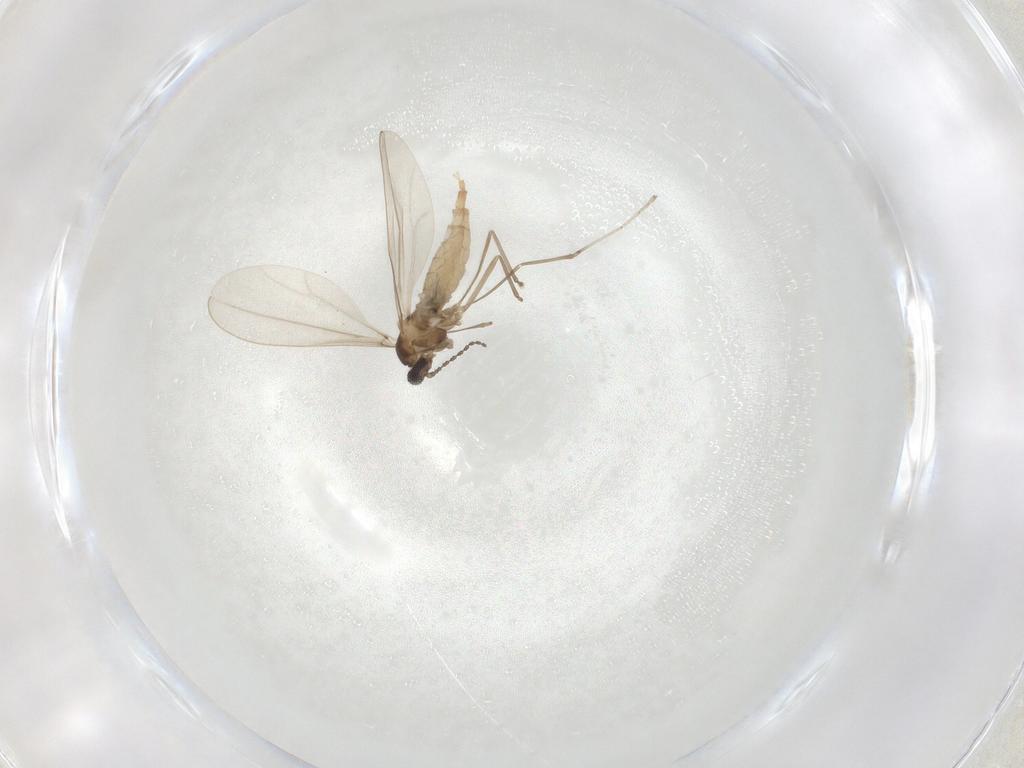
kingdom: Animalia
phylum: Arthropoda
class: Insecta
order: Diptera
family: Cecidomyiidae
